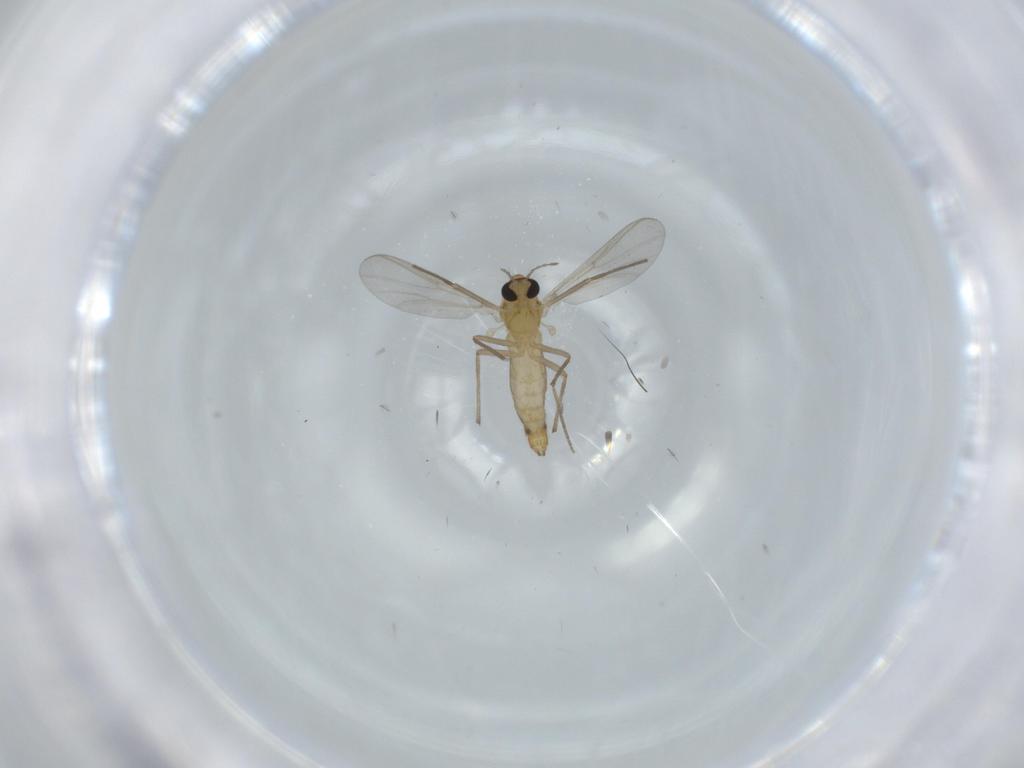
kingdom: Animalia
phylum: Arthropoda
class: Insecta
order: Diptera
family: Chironomidae
